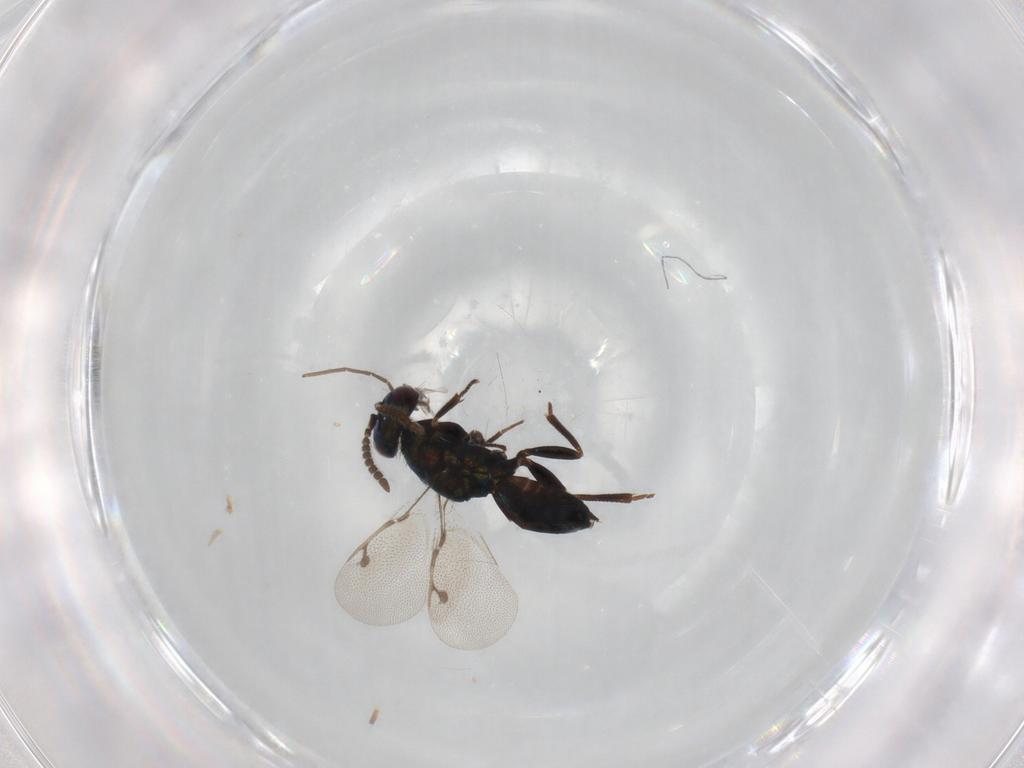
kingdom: Animalia
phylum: Arthropoda
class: Insecta
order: Hymenoptera
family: Pirenidae
